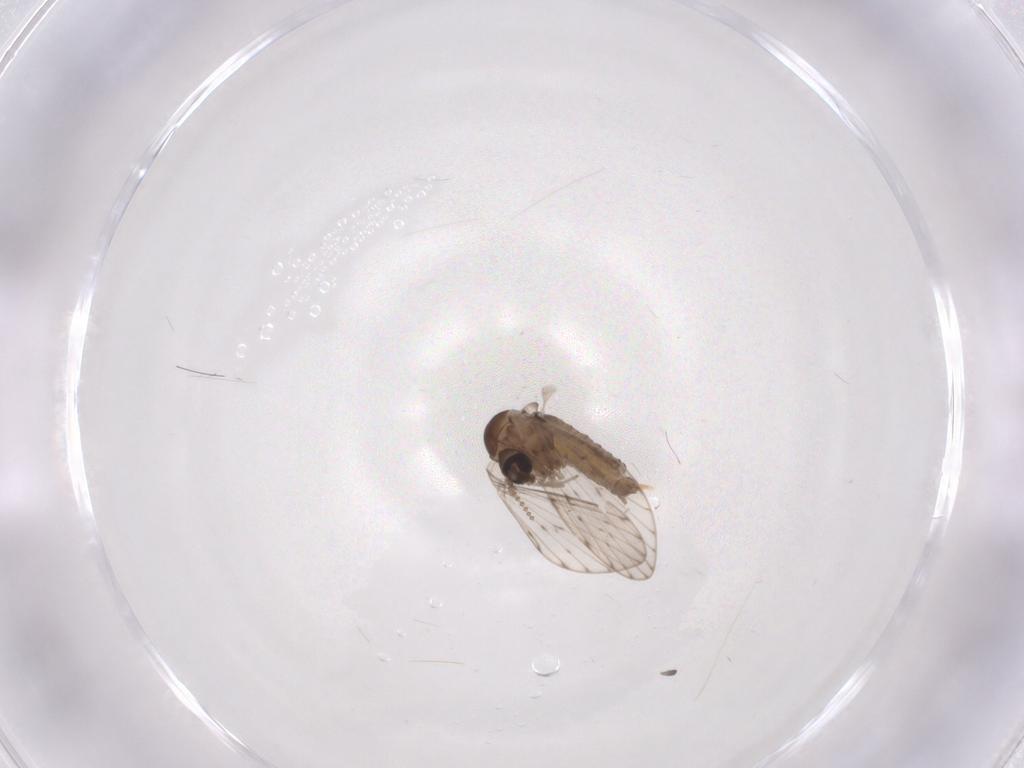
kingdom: Animalia
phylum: Arthropoda
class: Insecta
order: Diptera
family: Psychodidae
